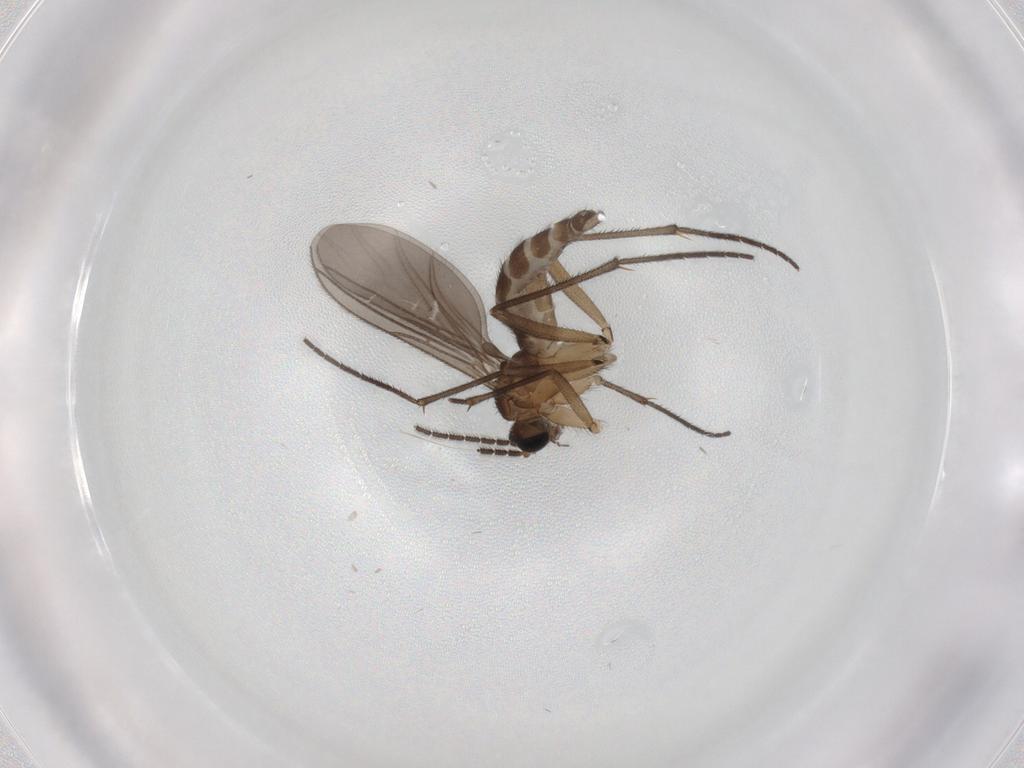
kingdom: Animalia
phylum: Arthropoda
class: Insecta
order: Diptera
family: Sciaridae
